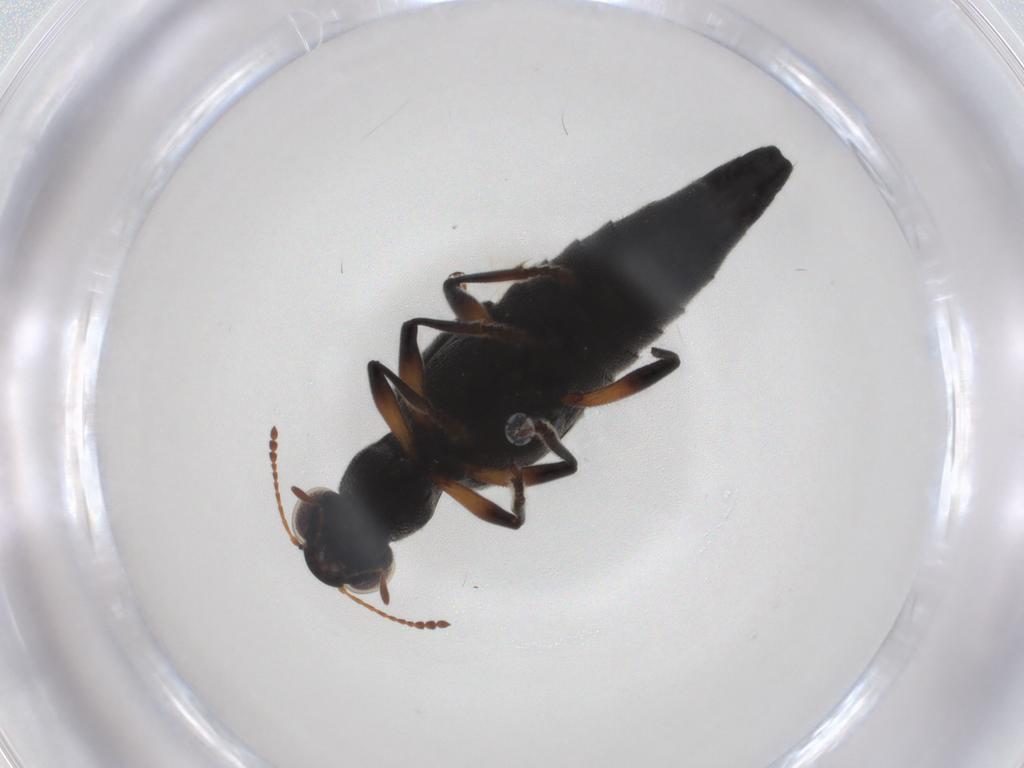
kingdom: Animalia
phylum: Arthropoda
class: Insecta
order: Coleoptera
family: Staphylinidae
